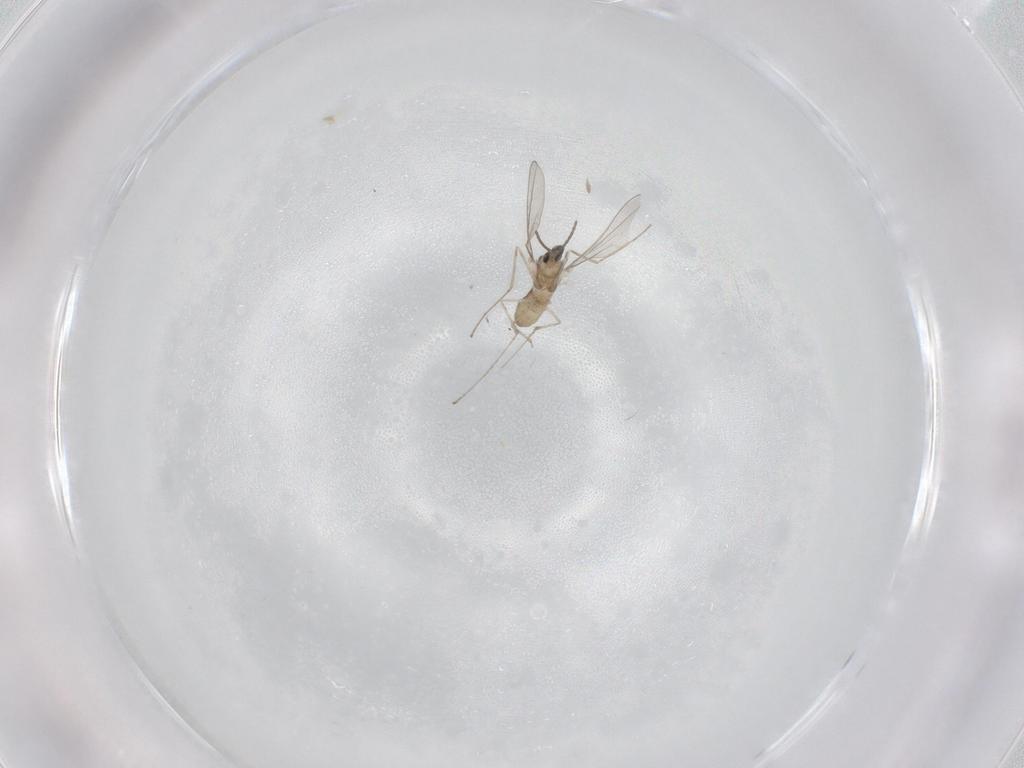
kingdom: Animalia
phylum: Arthropoda
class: Insecta
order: Diptera
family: Cecidomyiidae
